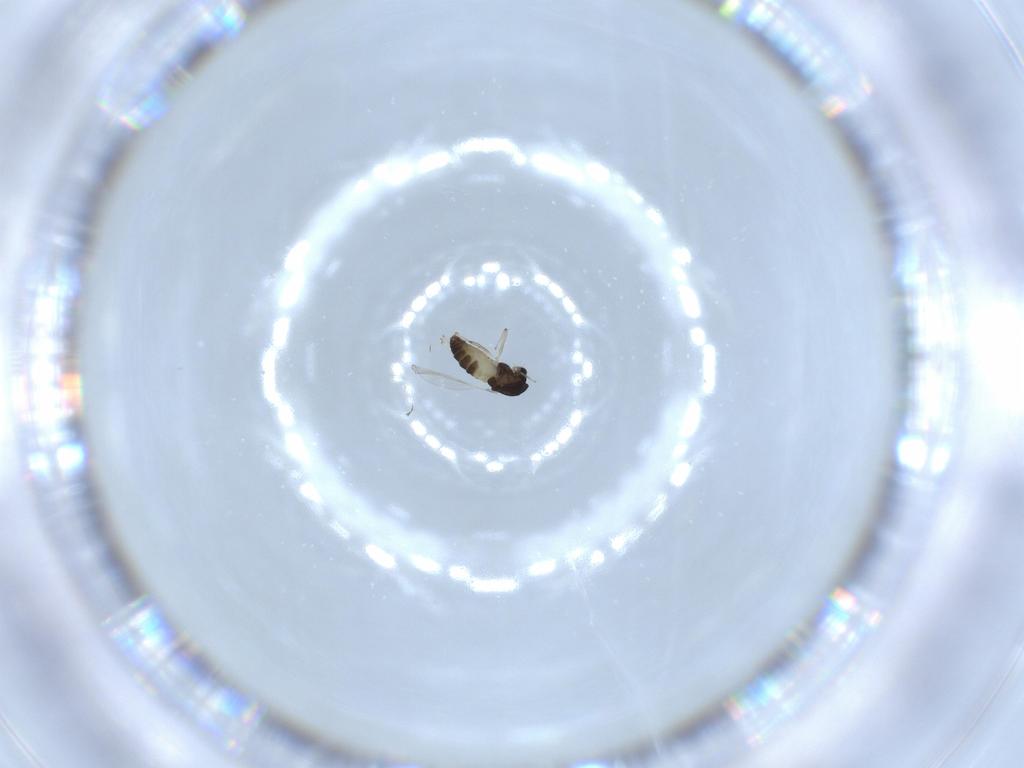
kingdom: Animalia
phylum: Arthropoda
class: Insecta
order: Diptera
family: Chironomidae
